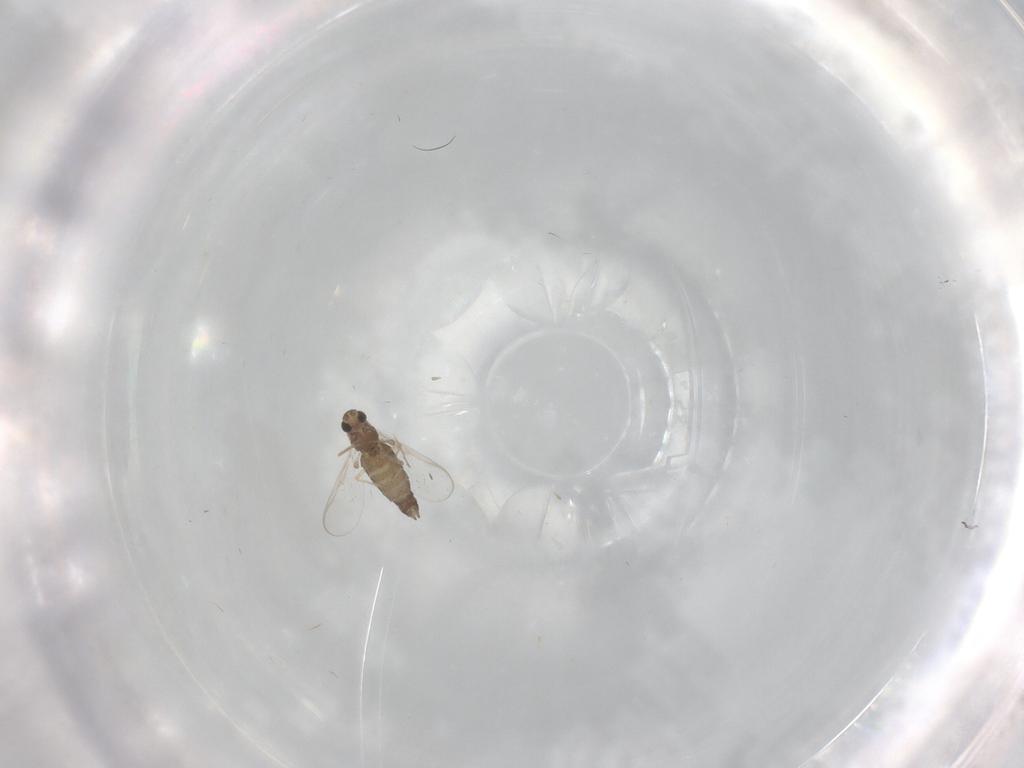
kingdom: Animalia
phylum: Arthropoda
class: Insecta
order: Diptera
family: Chironomidae
